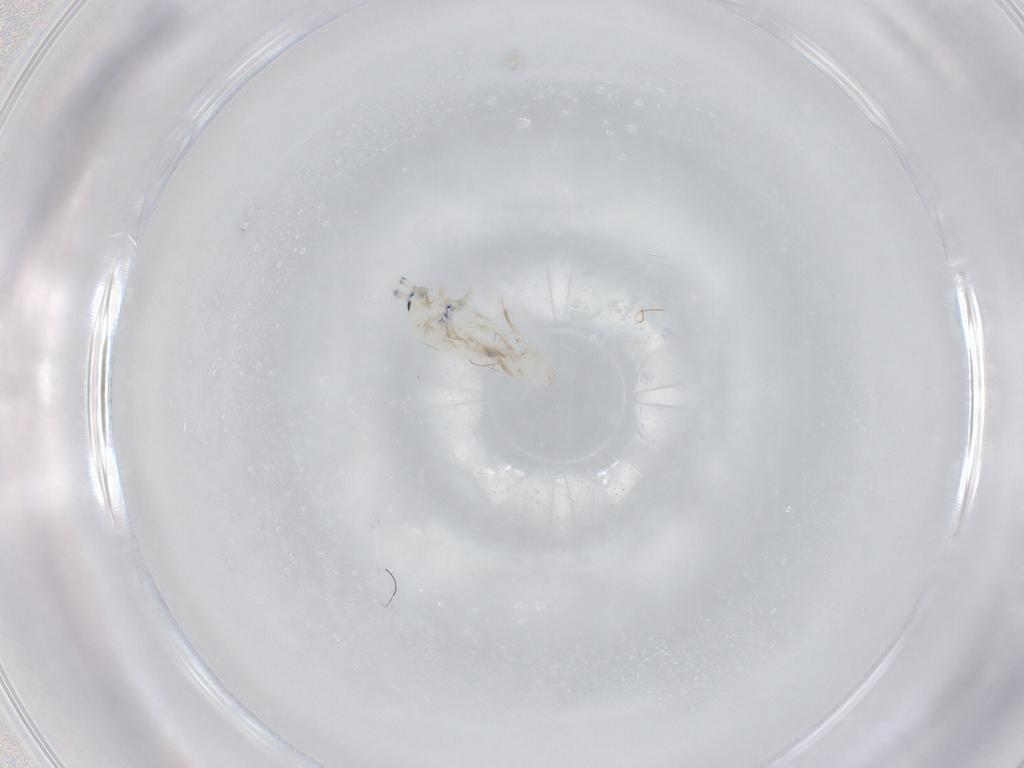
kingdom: Animalia
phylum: Arthropoda
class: Collembola
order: Entomobryomorpha
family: Entomobryidae
